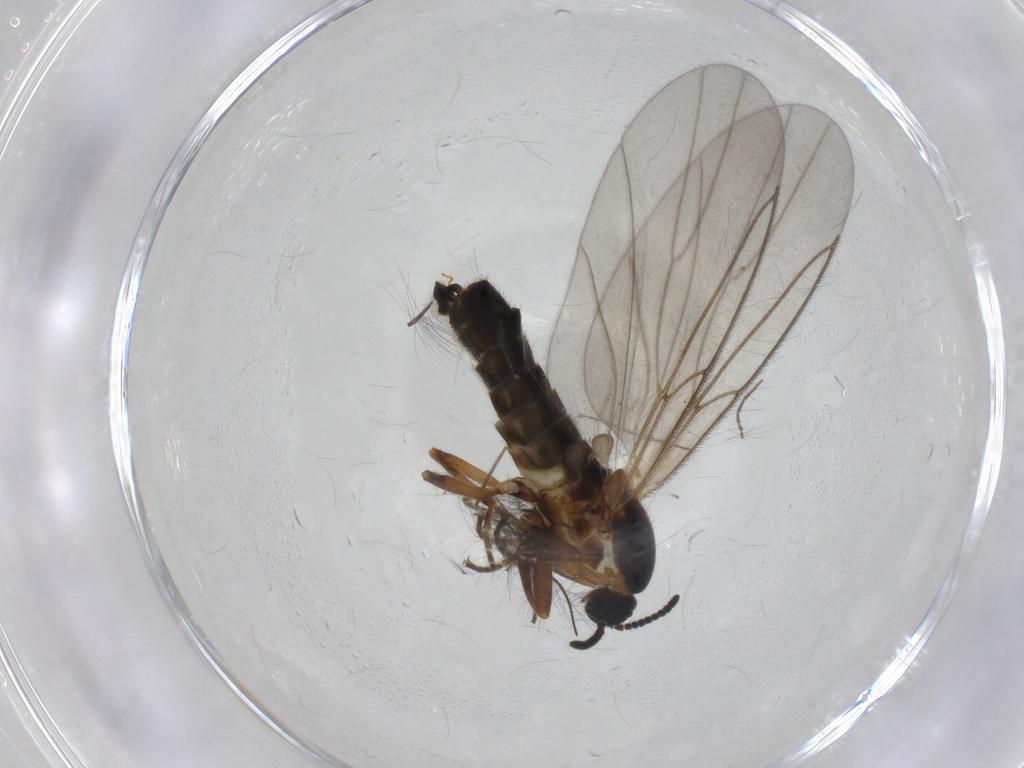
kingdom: Animalia
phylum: Arthropoda
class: Insecta
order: Diptera
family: Scatopsidae
